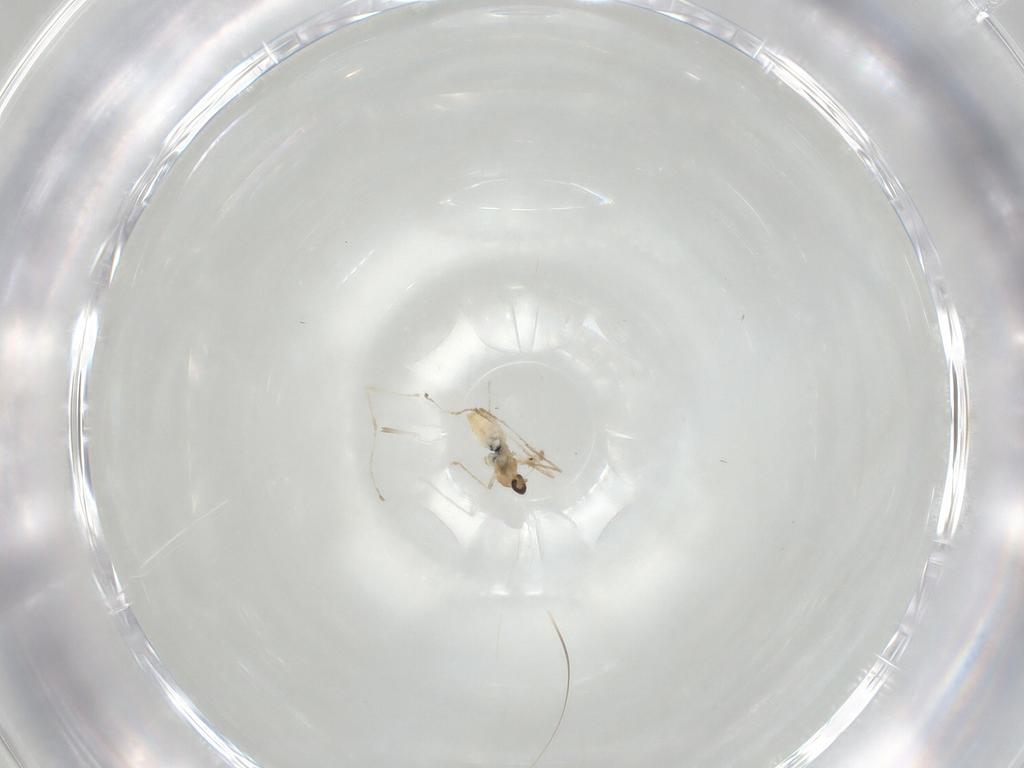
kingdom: Animalia
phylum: Arthropoda
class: Insecta
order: Diptera
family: Cecidomyiidae
